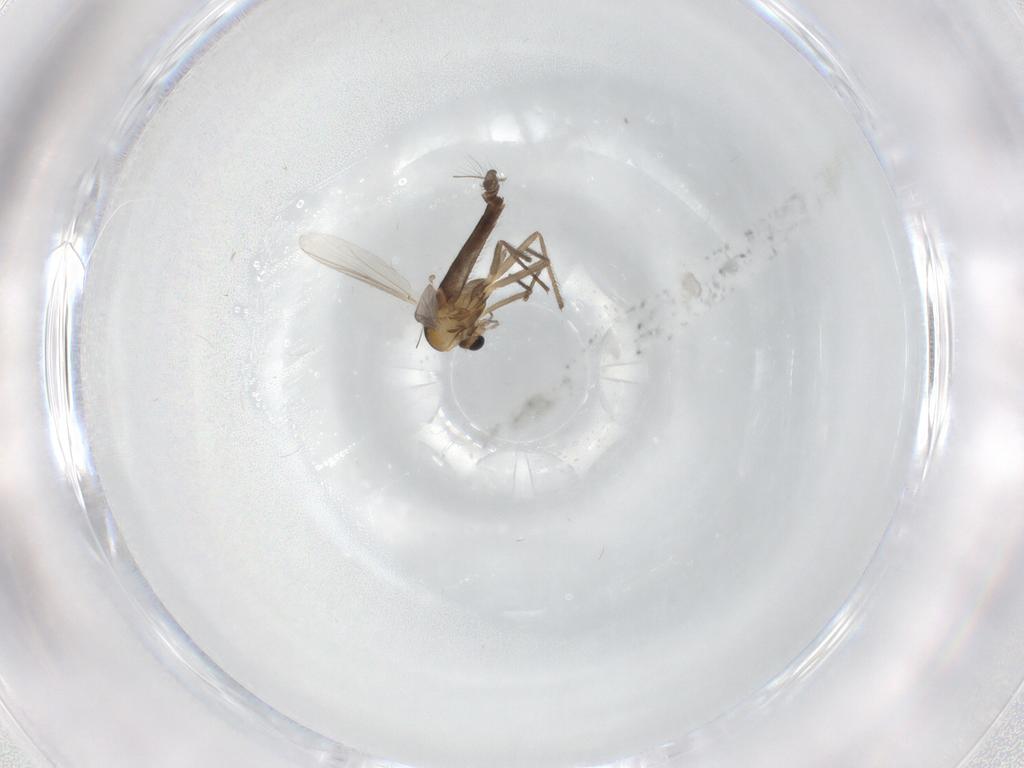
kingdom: Animalia
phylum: Arthropoda
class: Insecta
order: Diptera
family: Chironomidae
